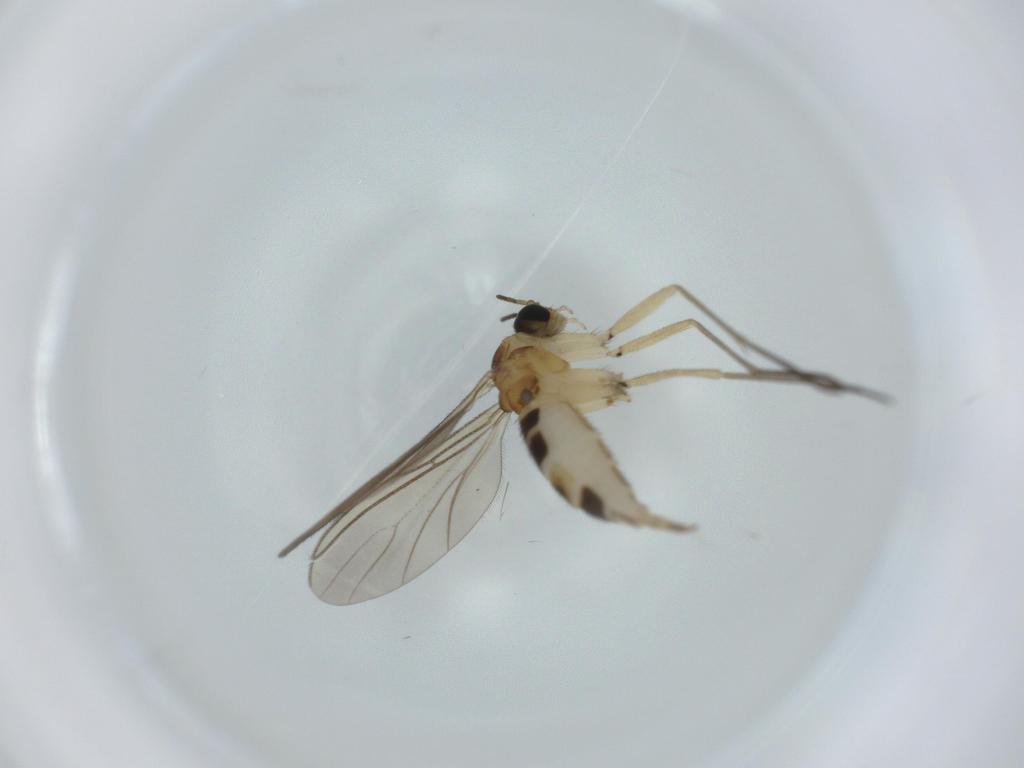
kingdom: Animalia
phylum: Arthropoda
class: Insecta
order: Diptera
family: Sciaridae
